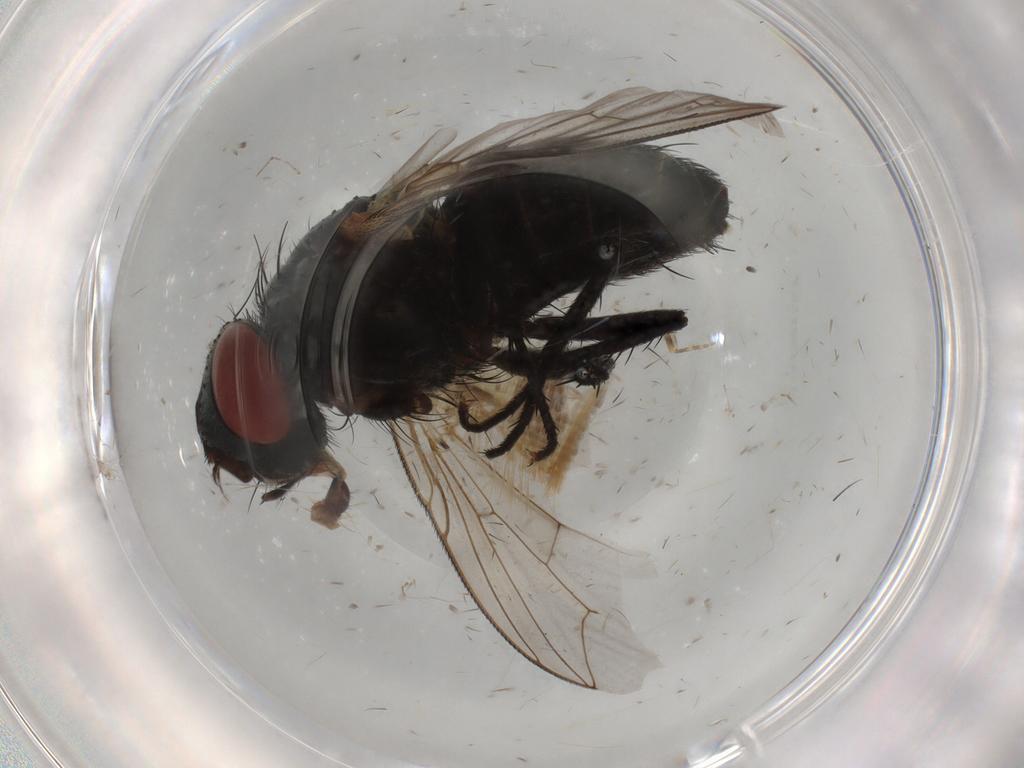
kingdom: Animalia
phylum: Arthropoda
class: Insecta
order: Diptera
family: Sarcophagidae
